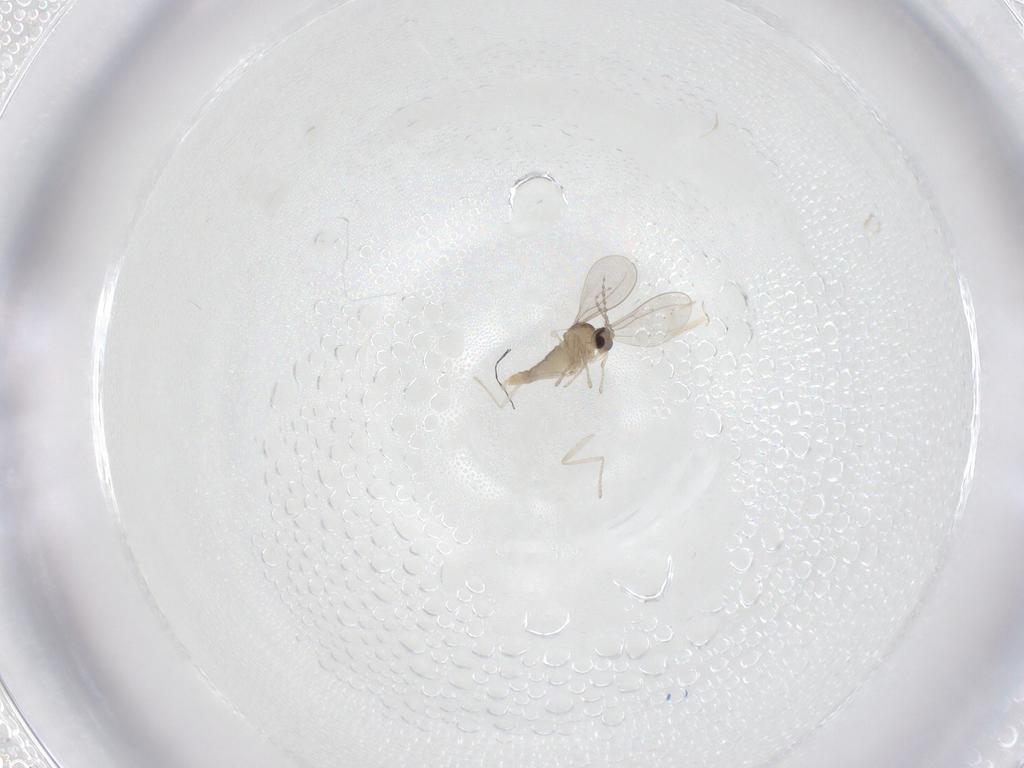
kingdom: Animalia
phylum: Arthropoda
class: Insecta
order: Diptera
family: Cecidomyiidae
